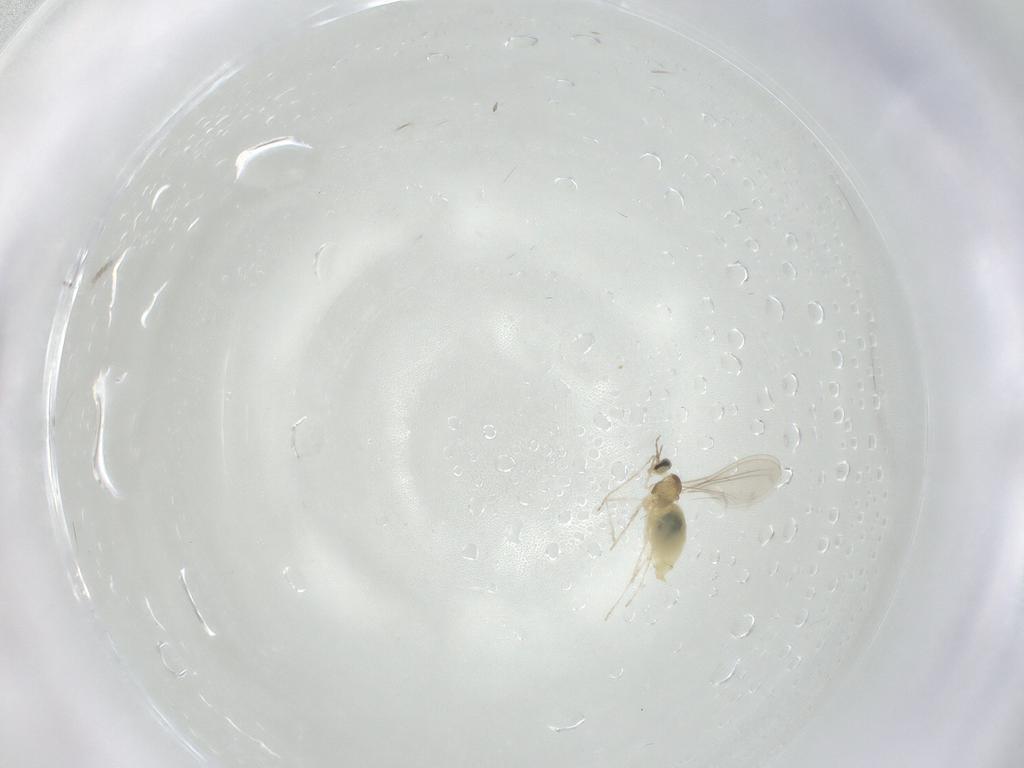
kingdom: Animalia
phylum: Arthropoda
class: Insecta
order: Diptera
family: Cecidomyiidae
